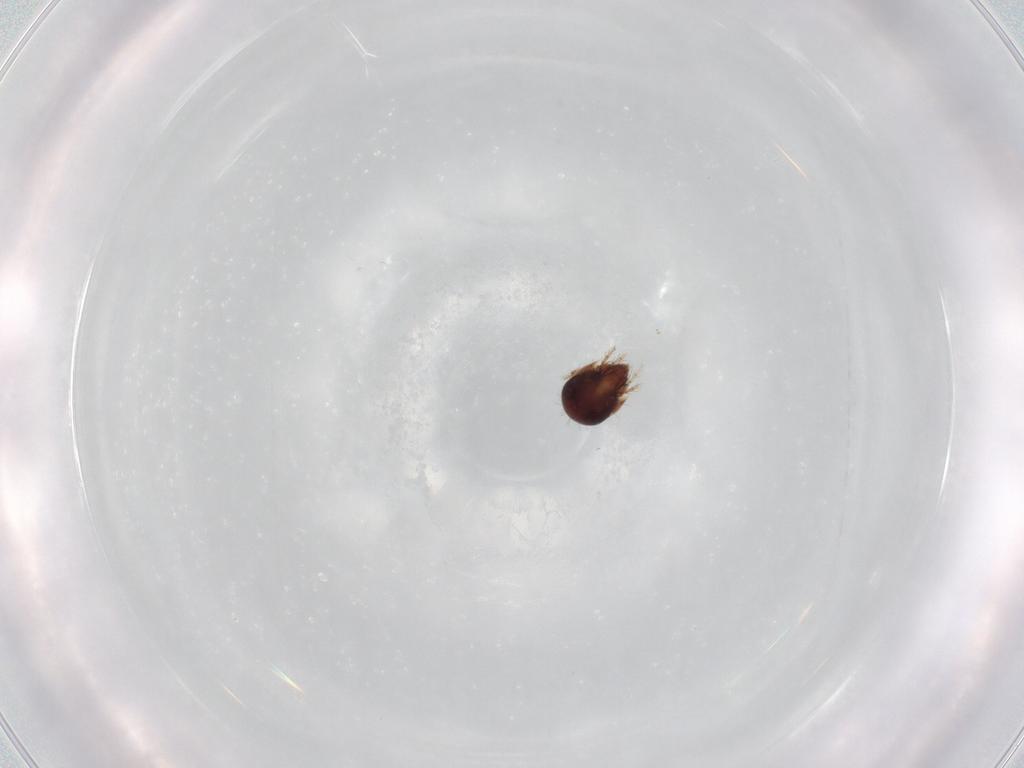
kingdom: Animalia
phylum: Arthropoda
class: Arachnida
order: Sarcoptiformes
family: Humerobatidae
